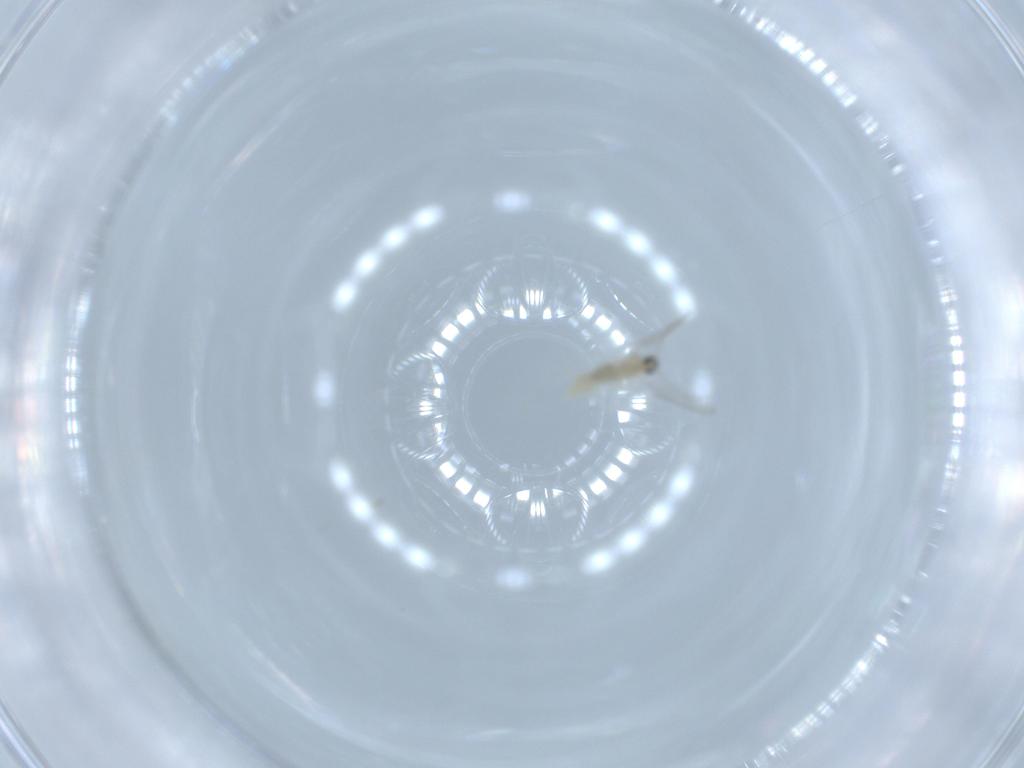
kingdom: Animalia
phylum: Arthropoda
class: Insecta
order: Diptera
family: Cecidomyiidae
